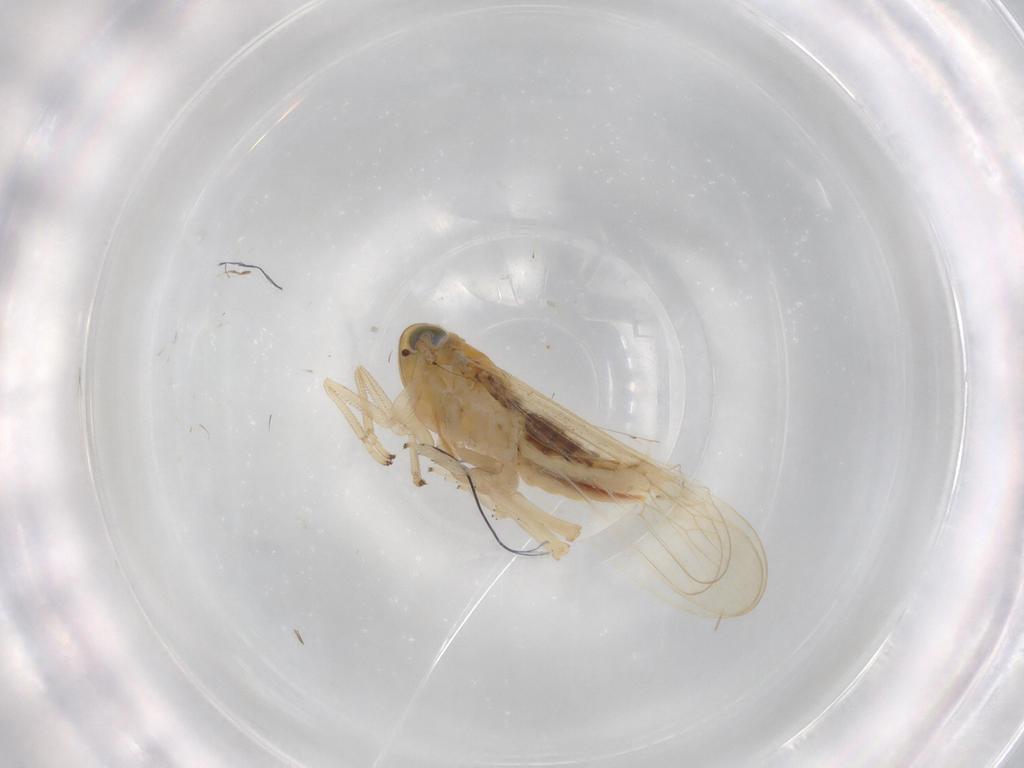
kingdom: Animalia
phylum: Arthropoda
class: Insecta
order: Hemiptera
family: Delphacidae
